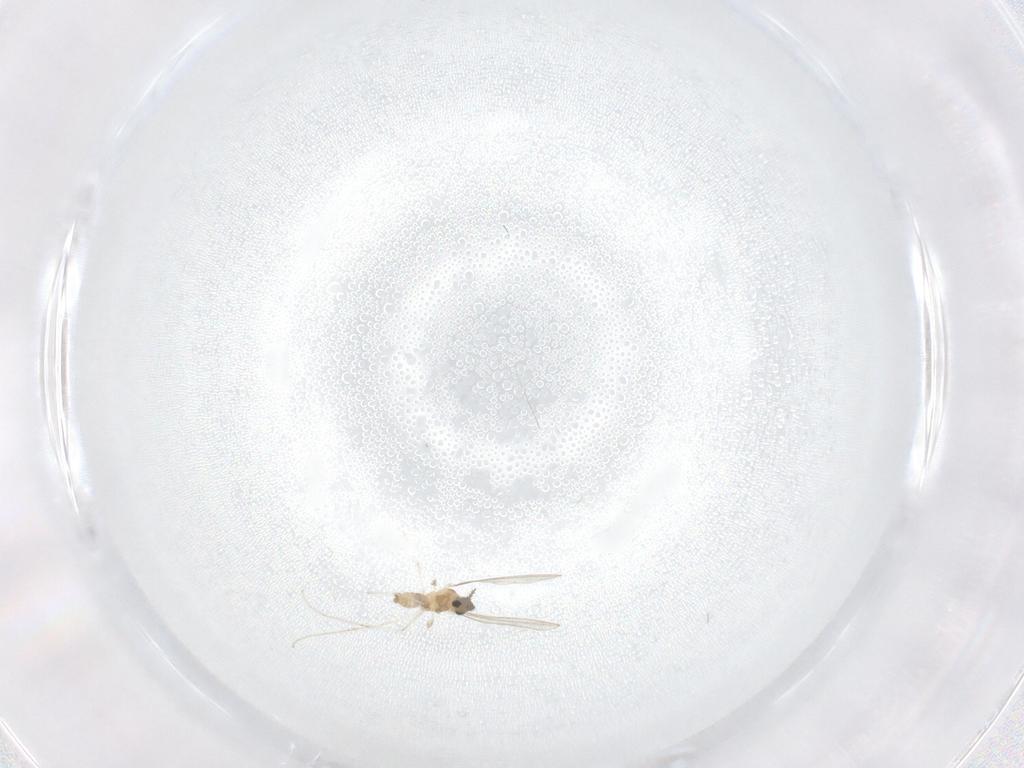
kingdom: Animalia
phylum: Arthropoda
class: Insecta
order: Diptera
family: Cecidomyiidae
